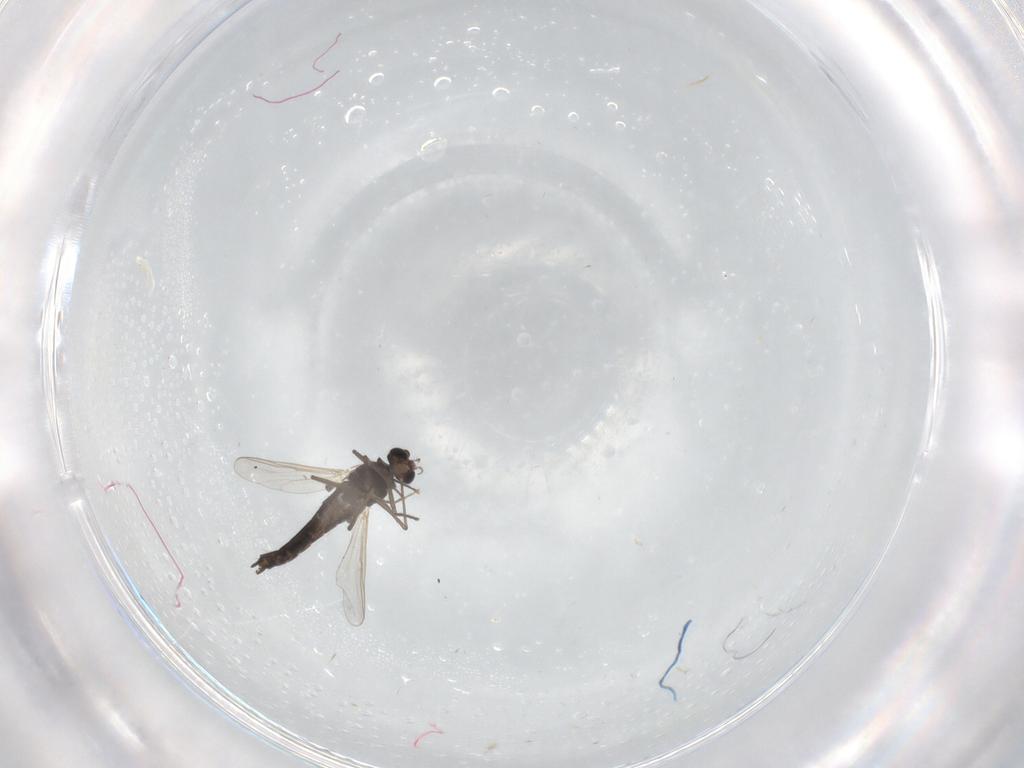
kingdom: Animalia
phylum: Arthropoda
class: Insecta
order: Diptera
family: Chironomidae
